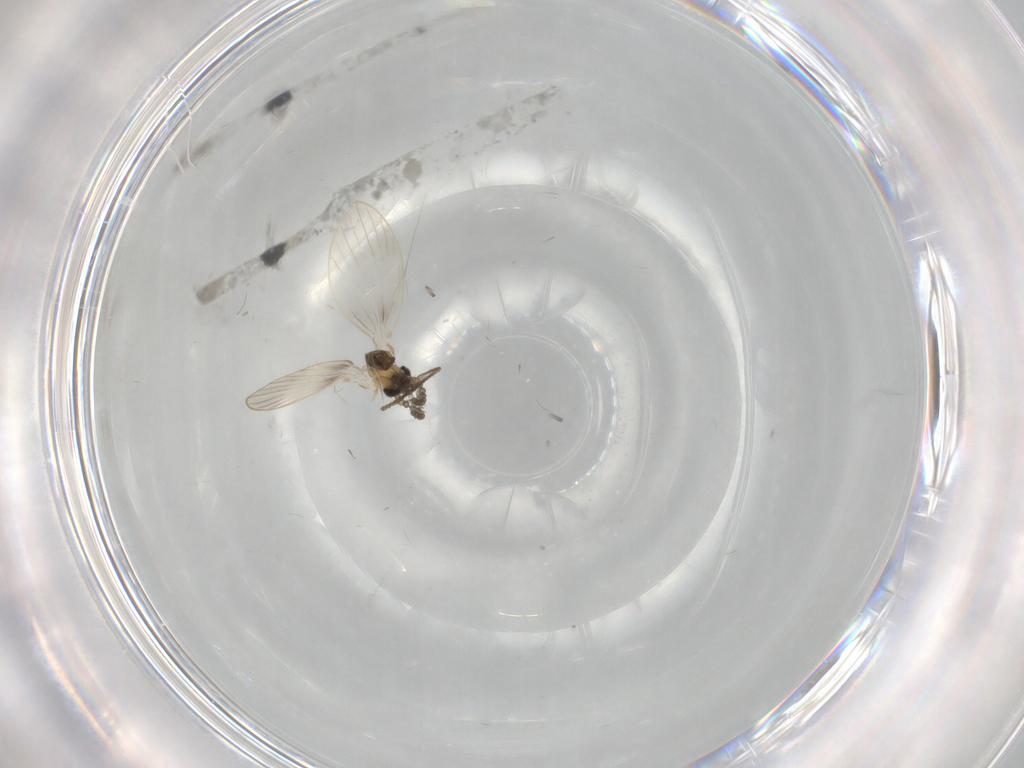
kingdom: Animalia
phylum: Arthropoda
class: Insecta
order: Diptera
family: Psychodidae
